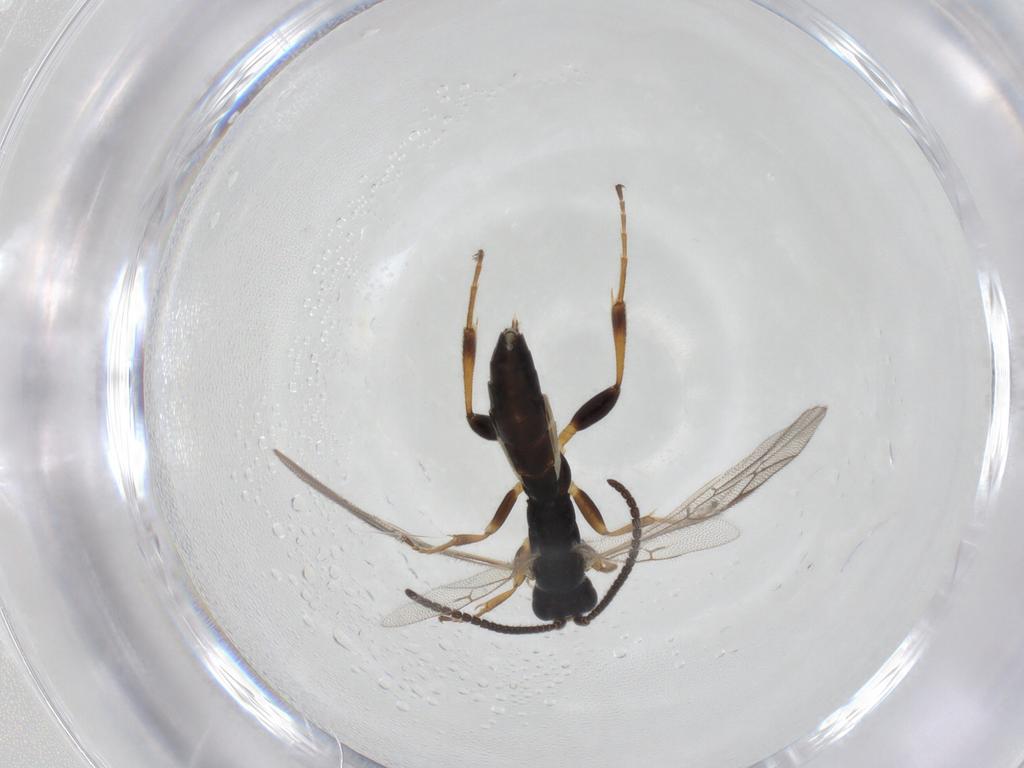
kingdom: Animalia
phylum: Arthropoda
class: Insecta
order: Hymenoptera
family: Ichneumonidae
